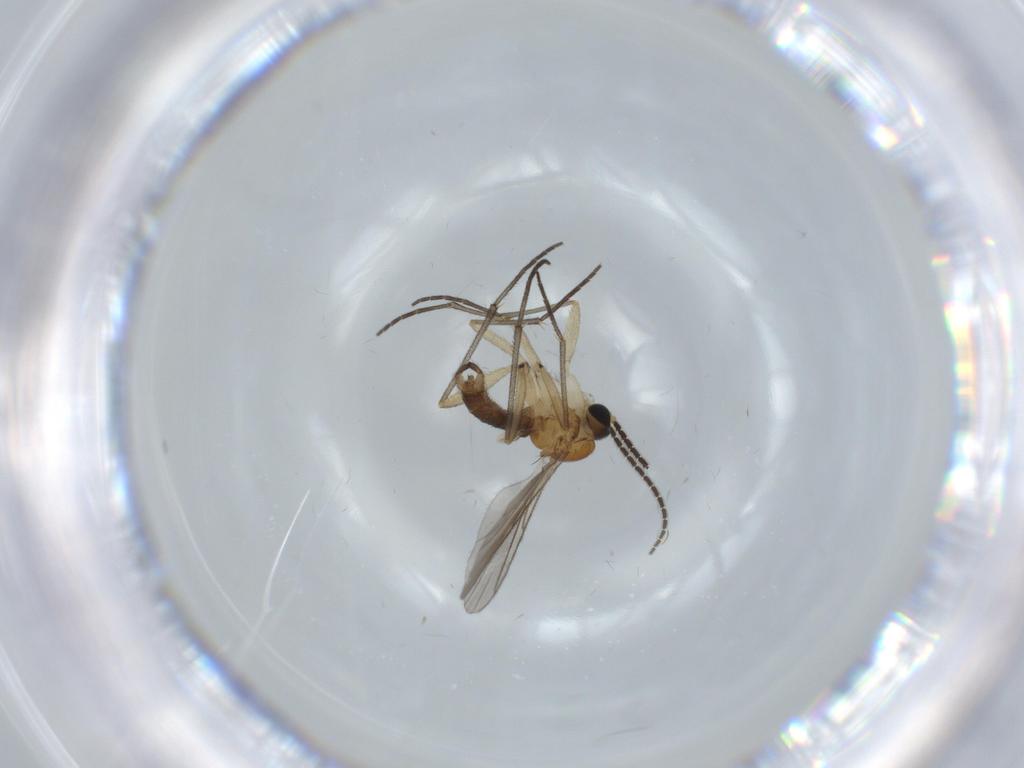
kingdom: Animalia
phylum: Arthropoda
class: Insecta
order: Diptera
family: Sciaridae
